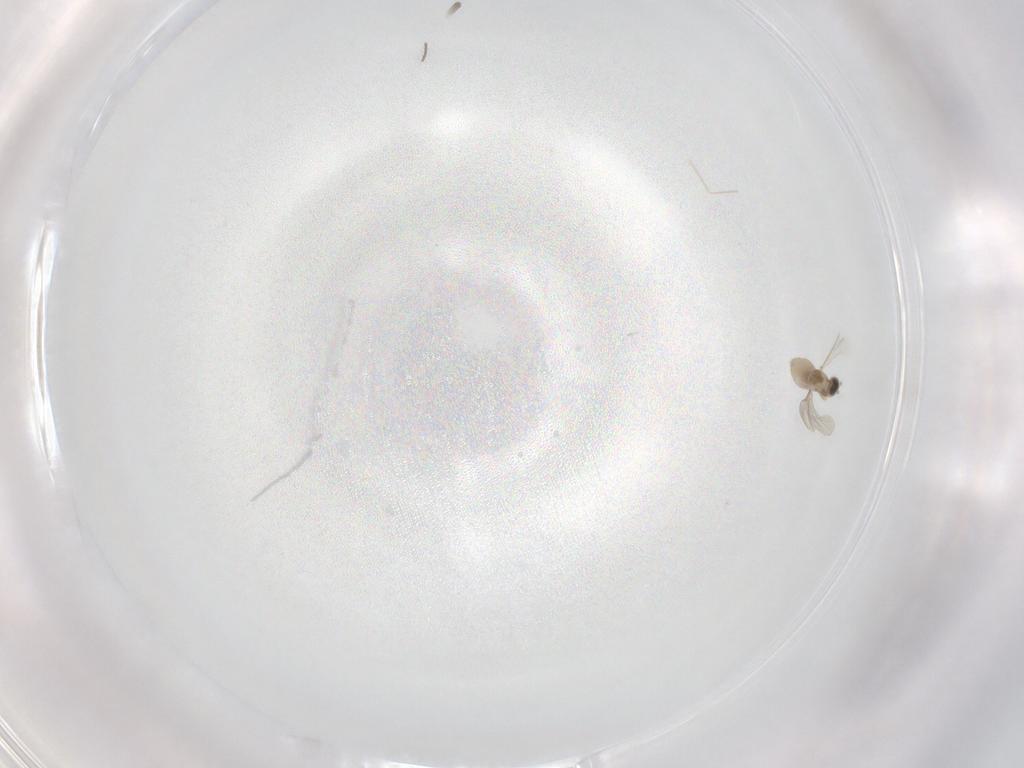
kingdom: Animalia
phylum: Arthropoda
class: Insecta
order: Diptera
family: Cecidomyiidae
